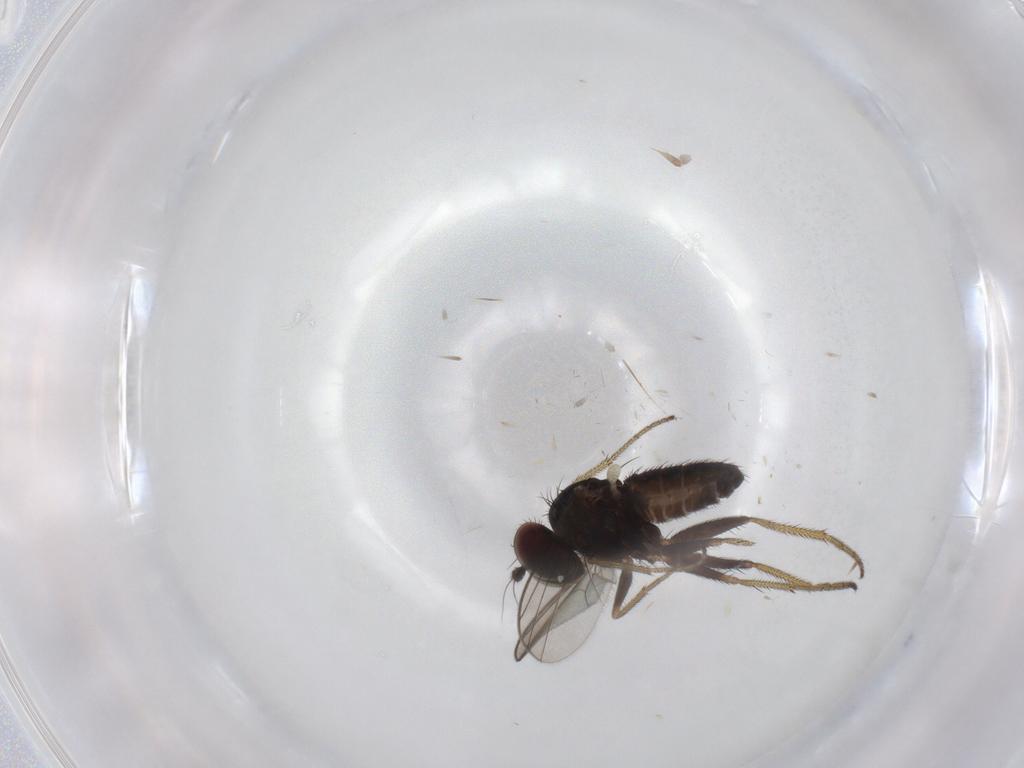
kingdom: Animalia
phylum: Arthropoda
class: Insecta
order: Diptera
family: Dolichopodidae
